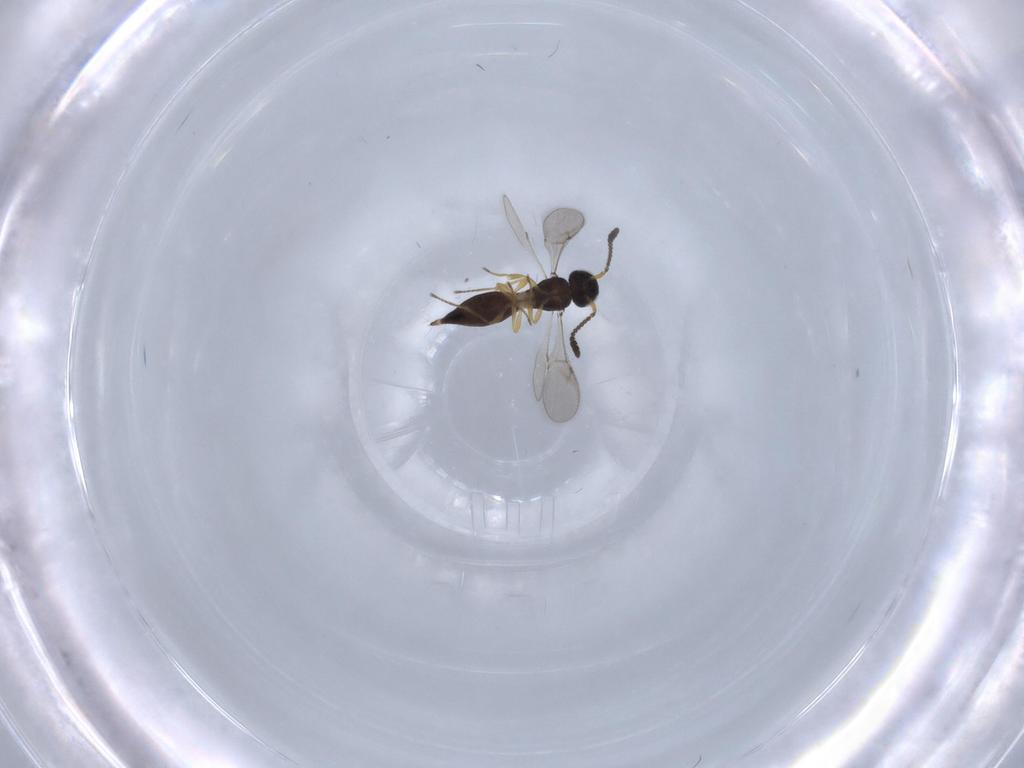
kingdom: Animalia
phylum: Arthropoda
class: Insecta
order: Hymenoptera
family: Scelionidae
